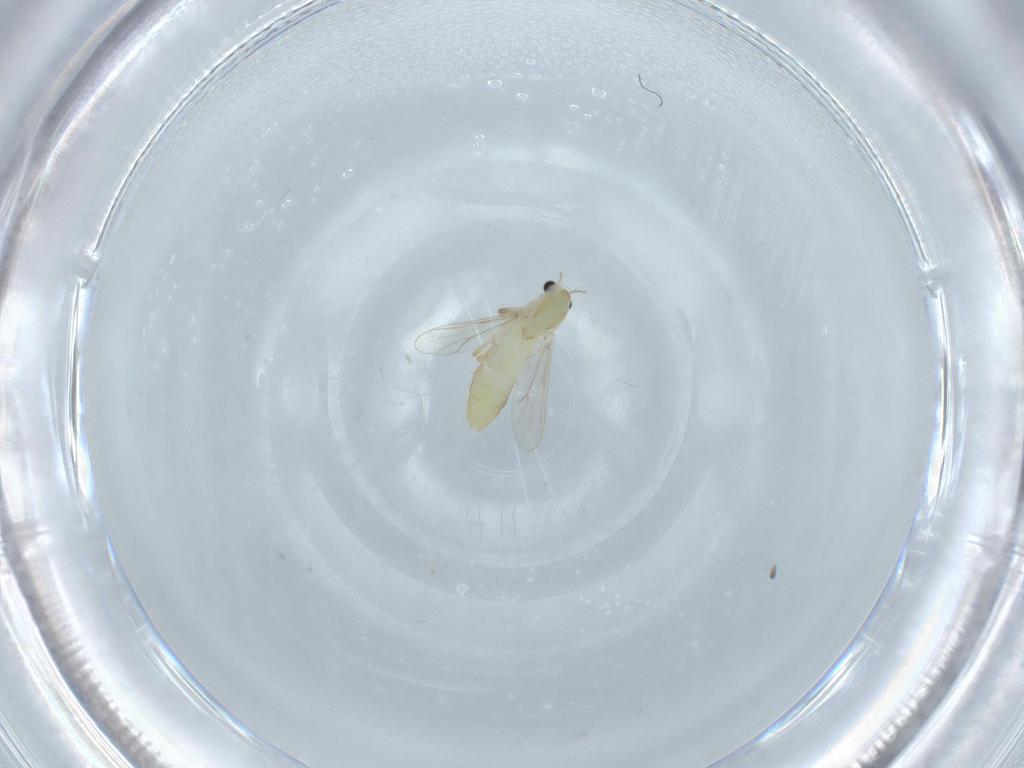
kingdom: Animalia
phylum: Arthropoda
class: Insecta
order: Diptera
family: Chironomidae
